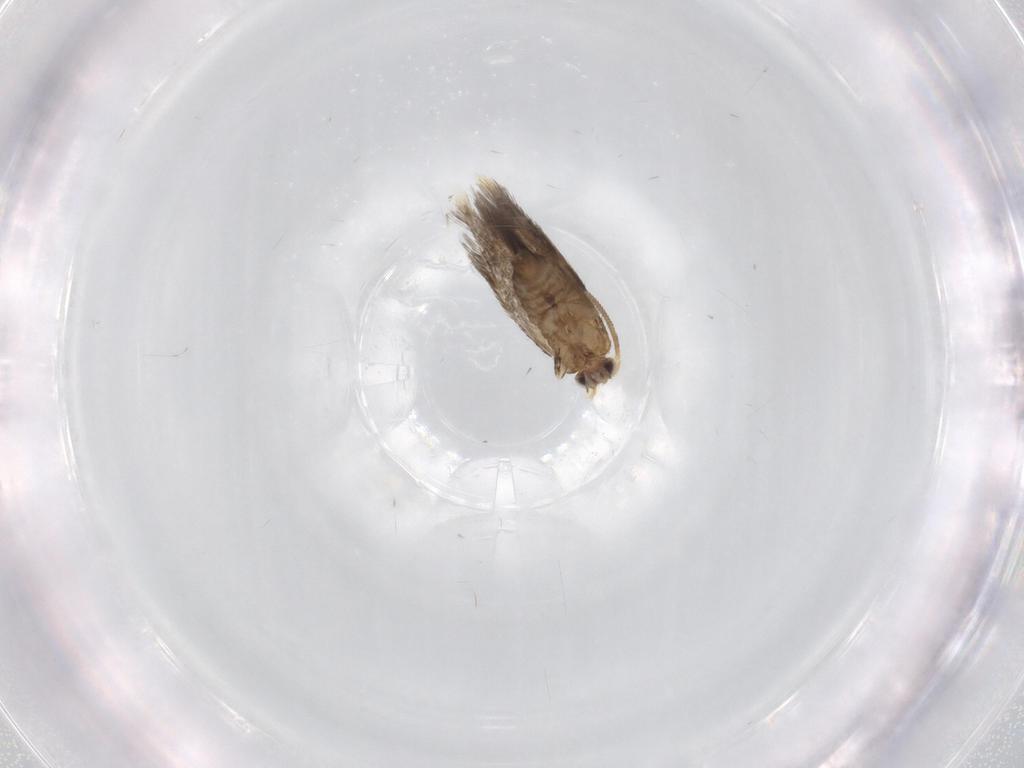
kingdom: Animalia
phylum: Arthropoda
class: Insecta
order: Lepidoptera
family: Nepticulidae
